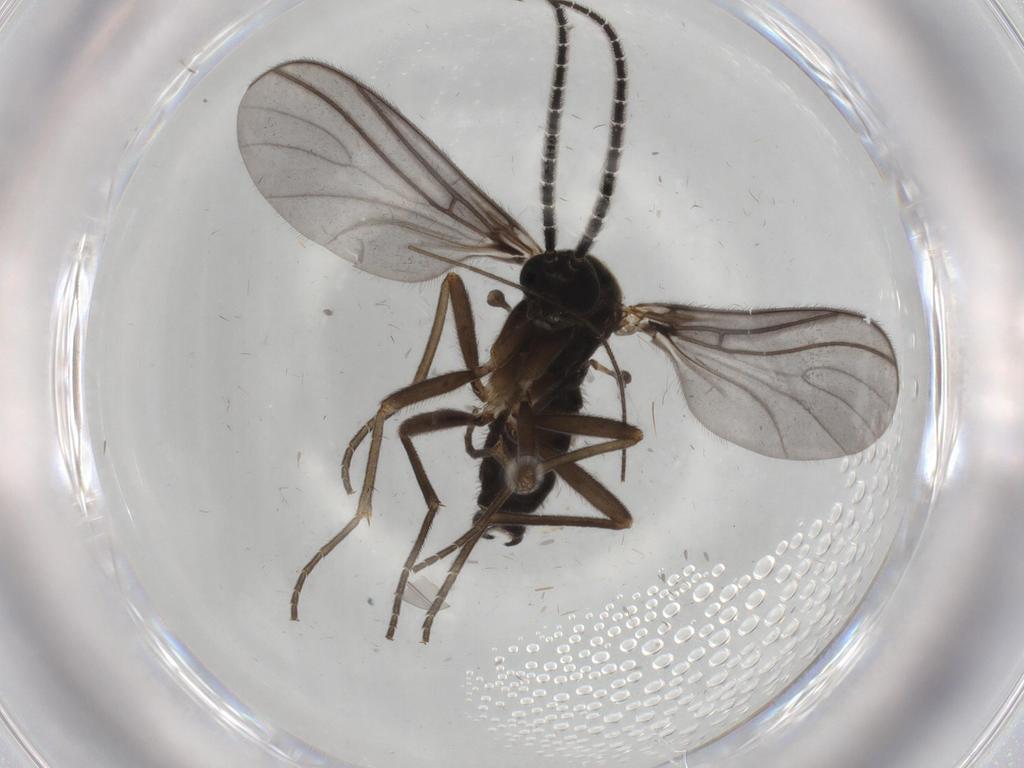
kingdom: Animalia
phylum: Arthropoda
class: Insecta
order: Diptera
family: Sciaridae
